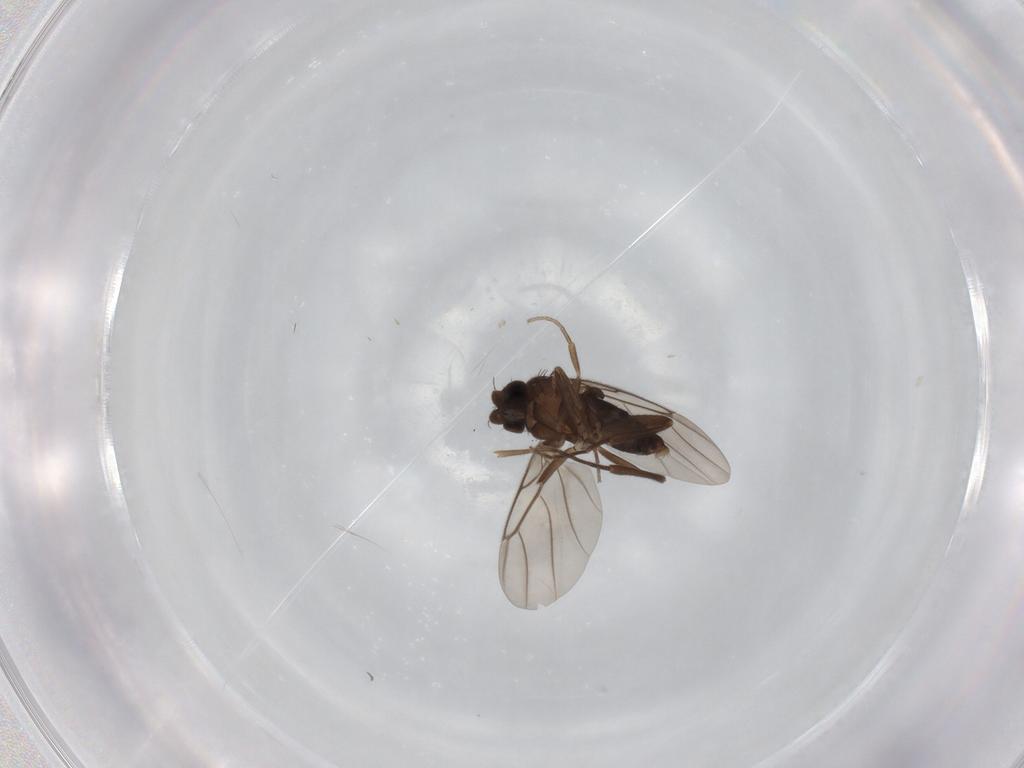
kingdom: Animalia
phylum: Arthropoda
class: Insecta
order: Diptera
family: Phoridae
